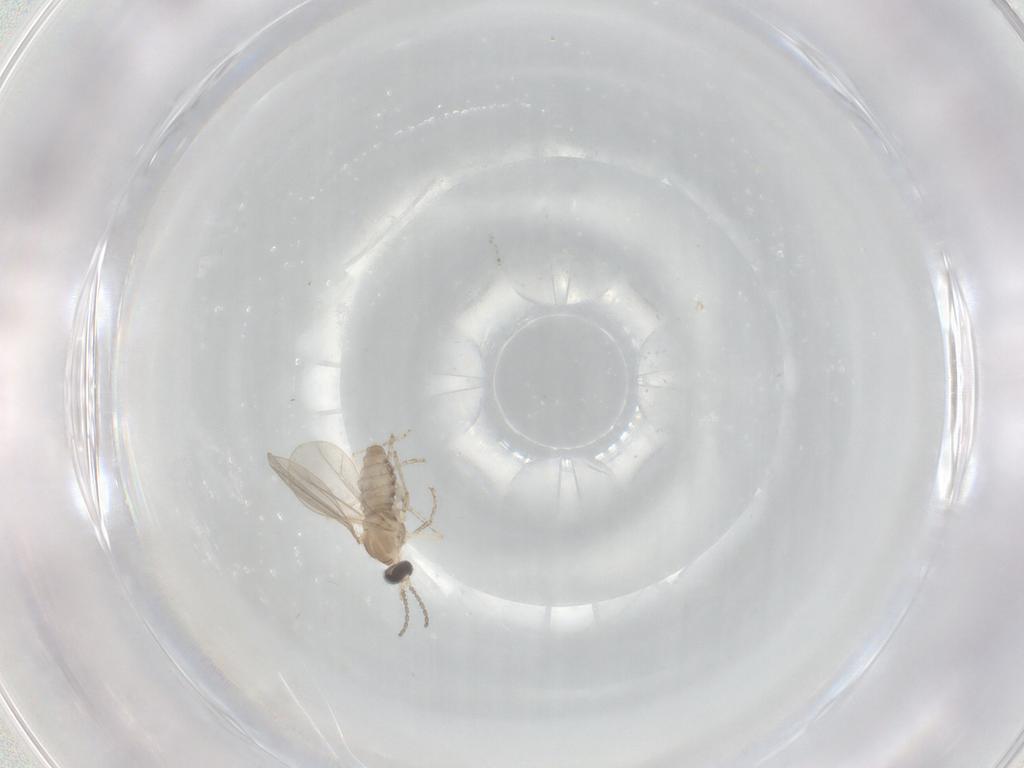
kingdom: Animalia
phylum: Arthropoda
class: Insecta
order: Diptera
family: Cecidomyiidae
